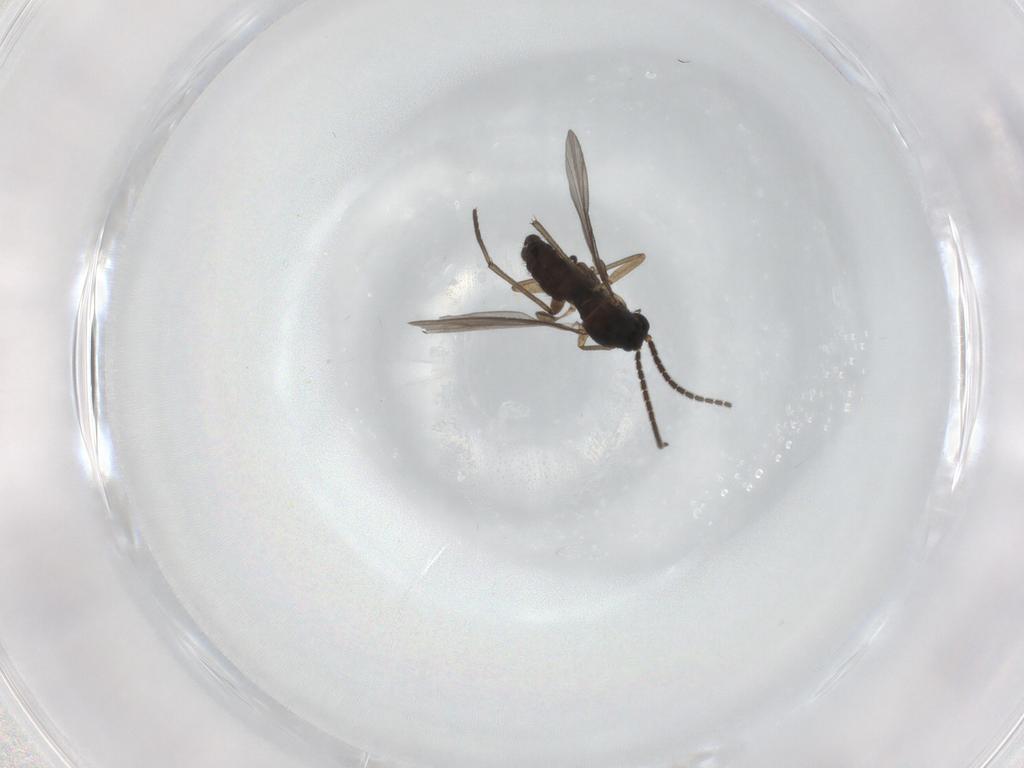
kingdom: Animalia
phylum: Arthropoda
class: Insecta
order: Diptera
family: Sciaridae
